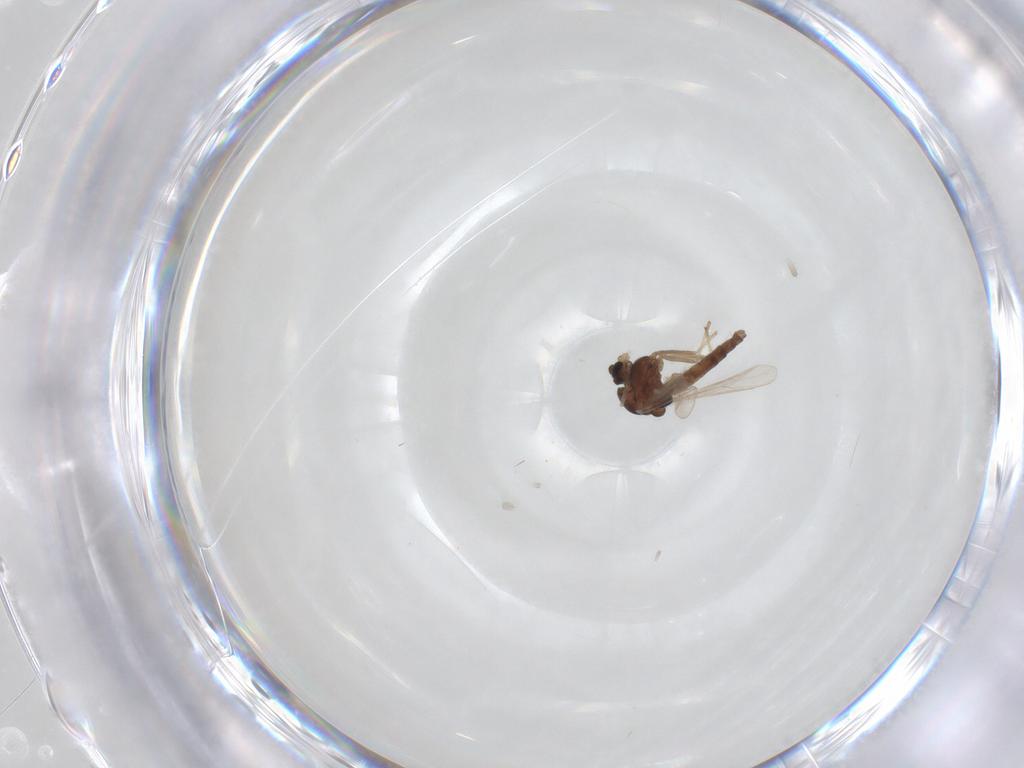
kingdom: Animalia
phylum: Arthropoda
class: Insecta
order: Diptera
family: Chironomidae
